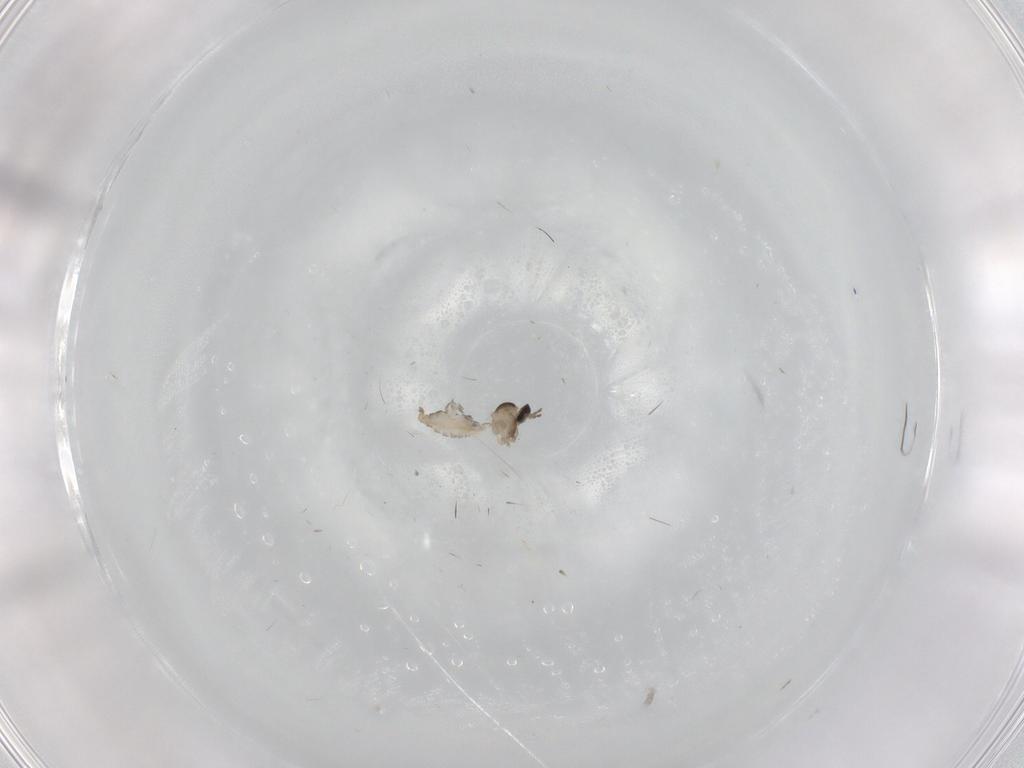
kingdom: Animalia
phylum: Arthropoda
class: Insecta
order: Diptera
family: Cecidomyiidae
